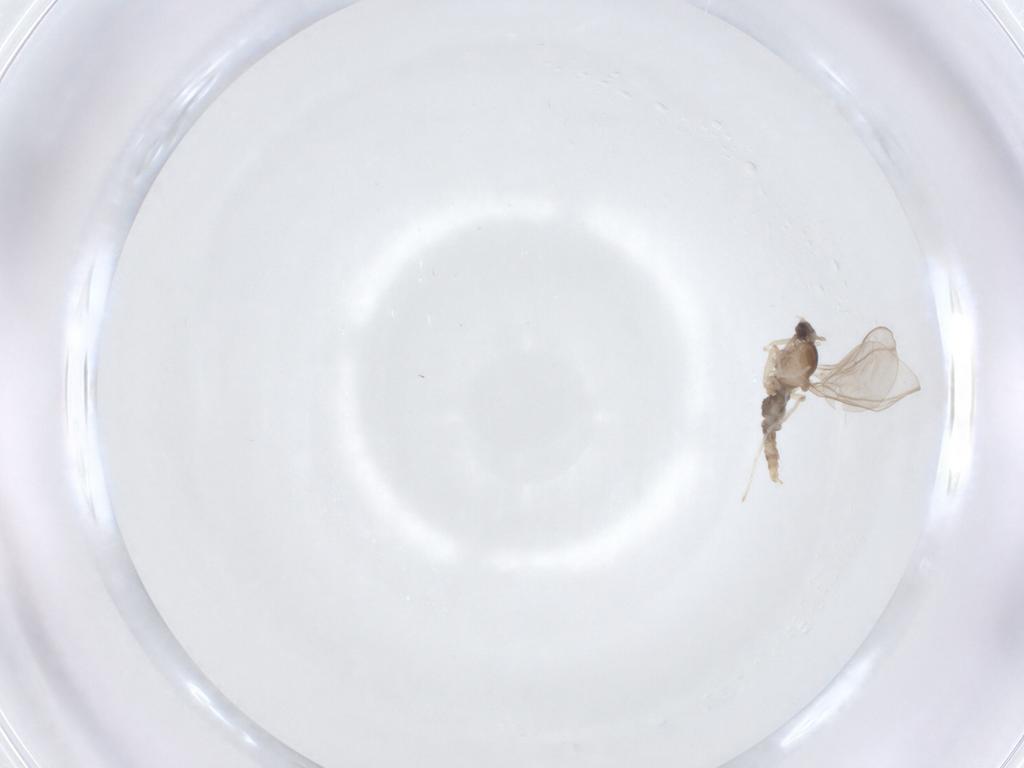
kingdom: Animalia
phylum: Arthropoda
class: Insecta
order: Diptera
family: Cecidomyiidae
